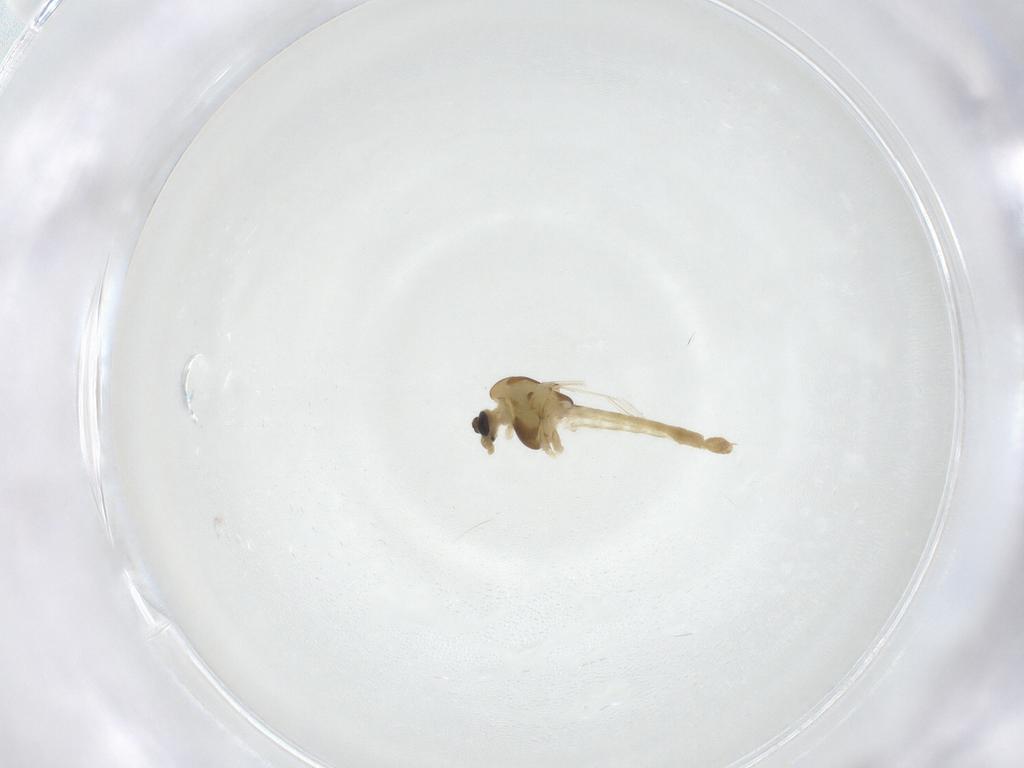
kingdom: Animalia
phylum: Arthropoda
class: Insecta
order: Diptera
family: Chironomidae
